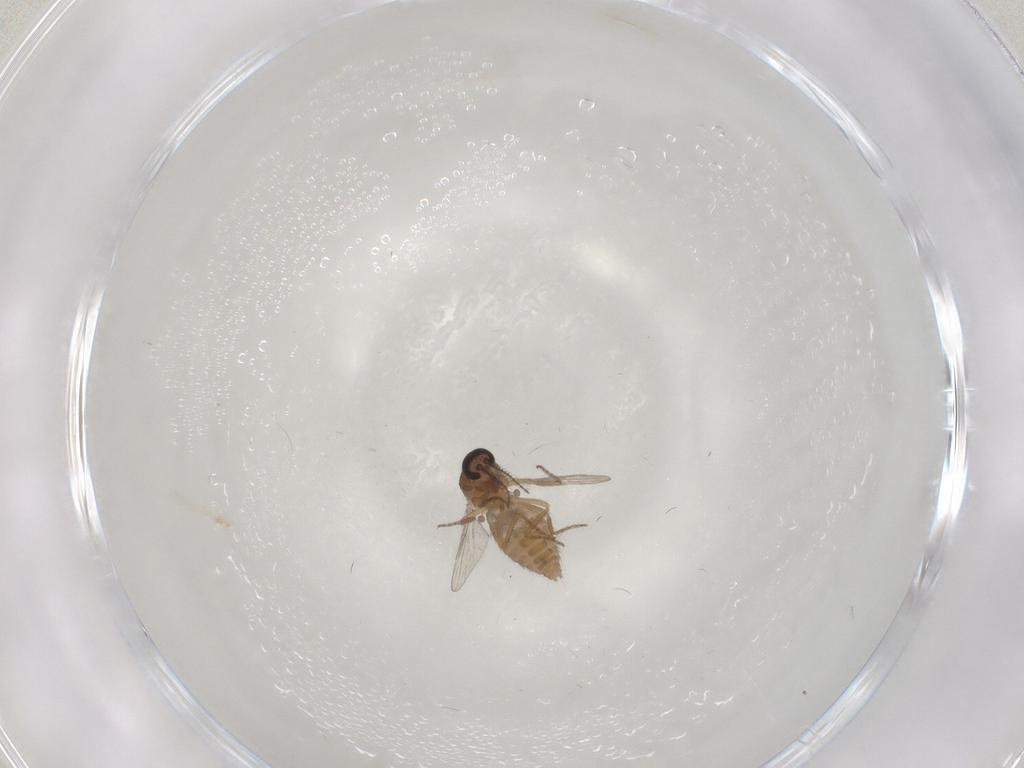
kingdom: Animalia
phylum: Arthropoda
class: Insecta
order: Diptera
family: Ceratopogonidae
